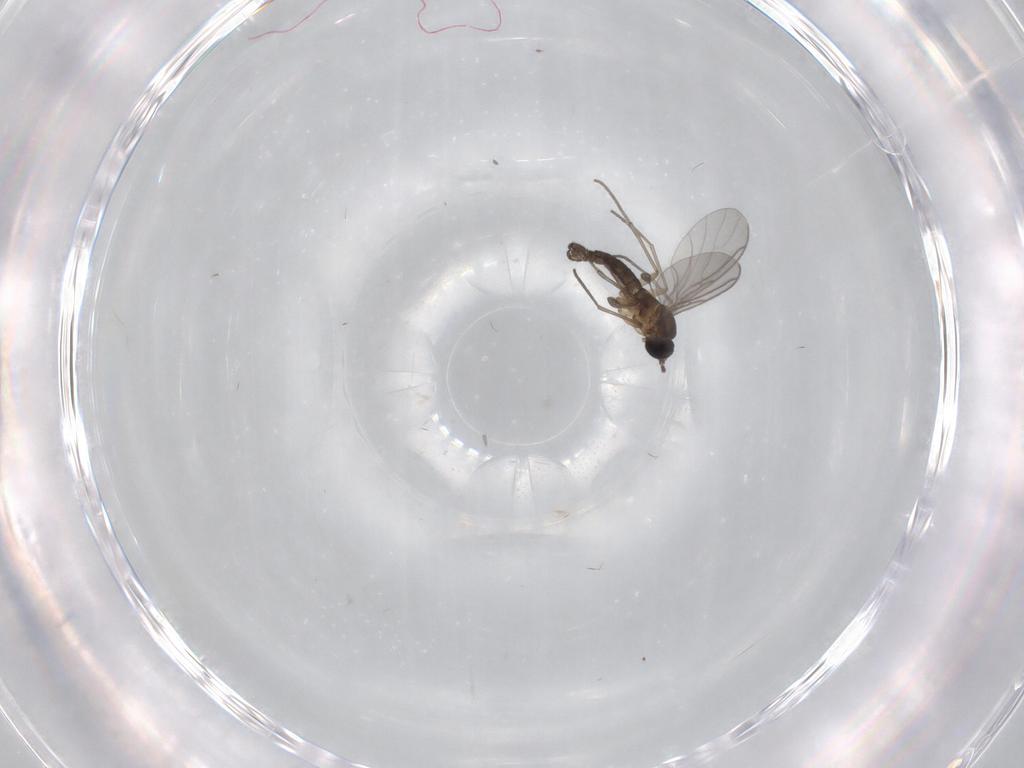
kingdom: Animalia
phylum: Arthropoda
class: Insecta
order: Diptera
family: Sciaridae
